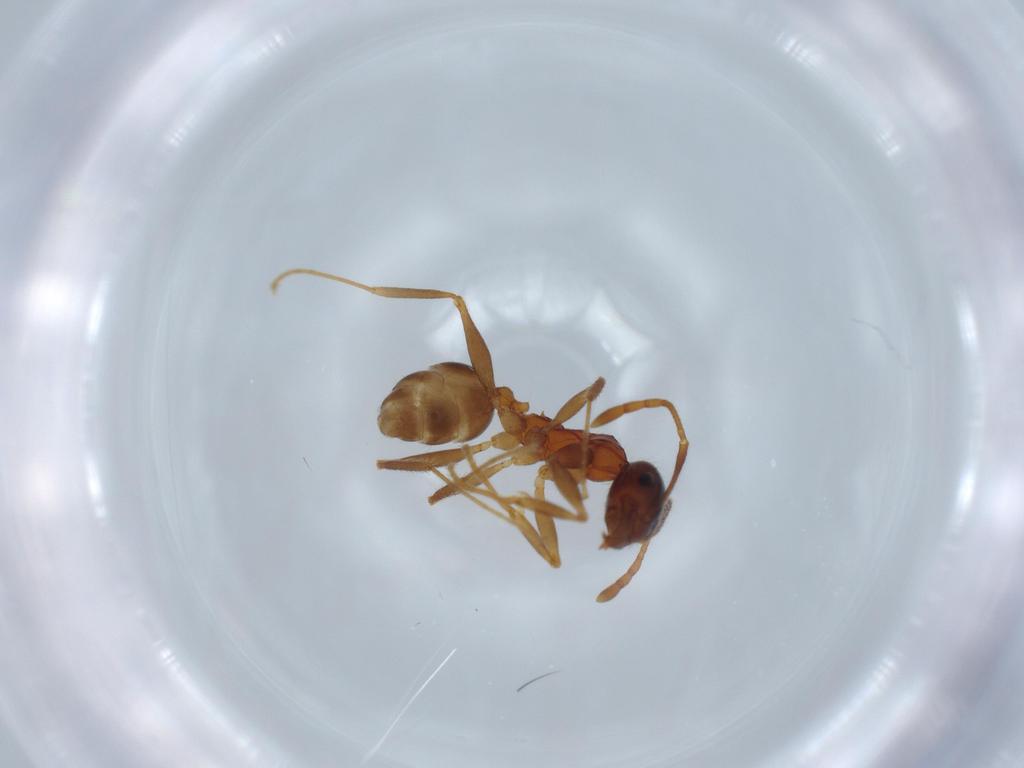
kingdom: Animalia
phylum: Arthropoda
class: Insecta
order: Hymenoptera
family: Formicidae
